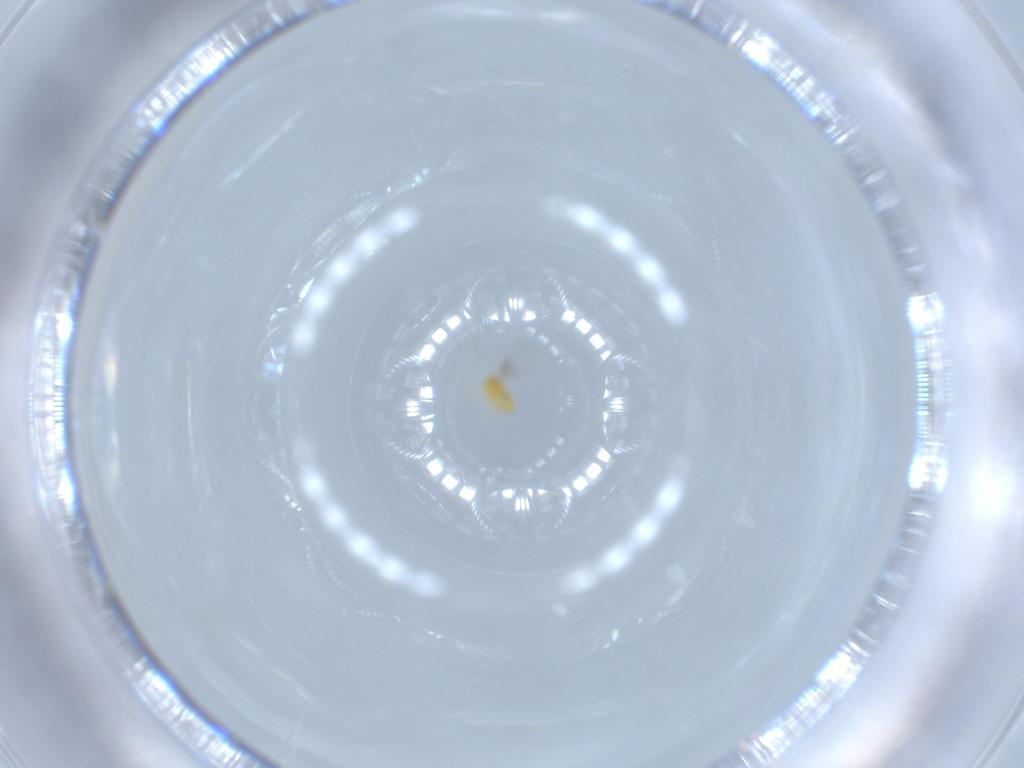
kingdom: Animalia
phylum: Arthropoda
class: Insecta
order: Hymenoptera
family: Trichogrammatidae
